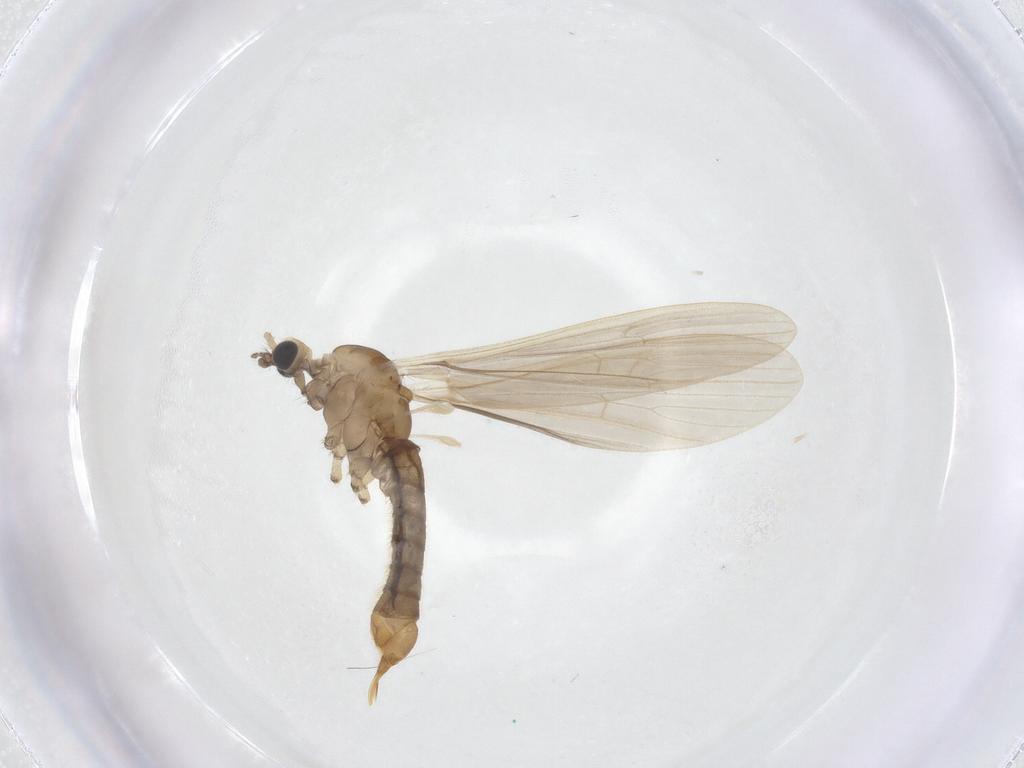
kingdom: Animalia
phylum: Arthropoda
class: Insecta
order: Diptera
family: Limoniidae
